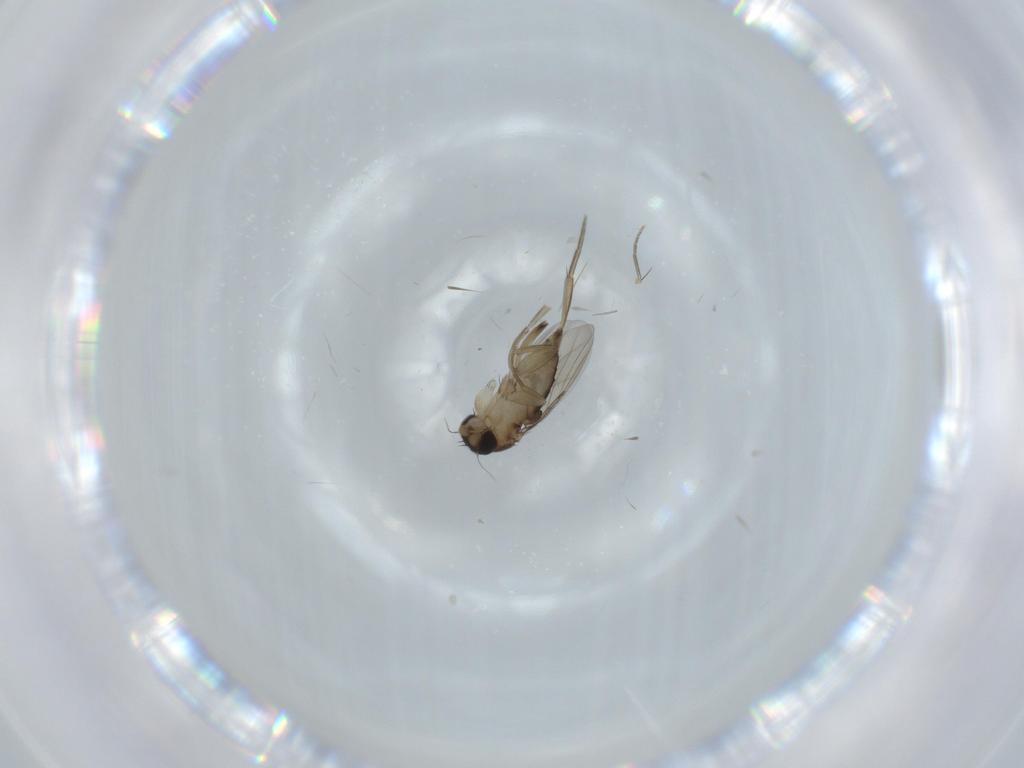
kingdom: Animalia
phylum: Arthropoda
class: Insecta
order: Diptera
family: Phoridae
